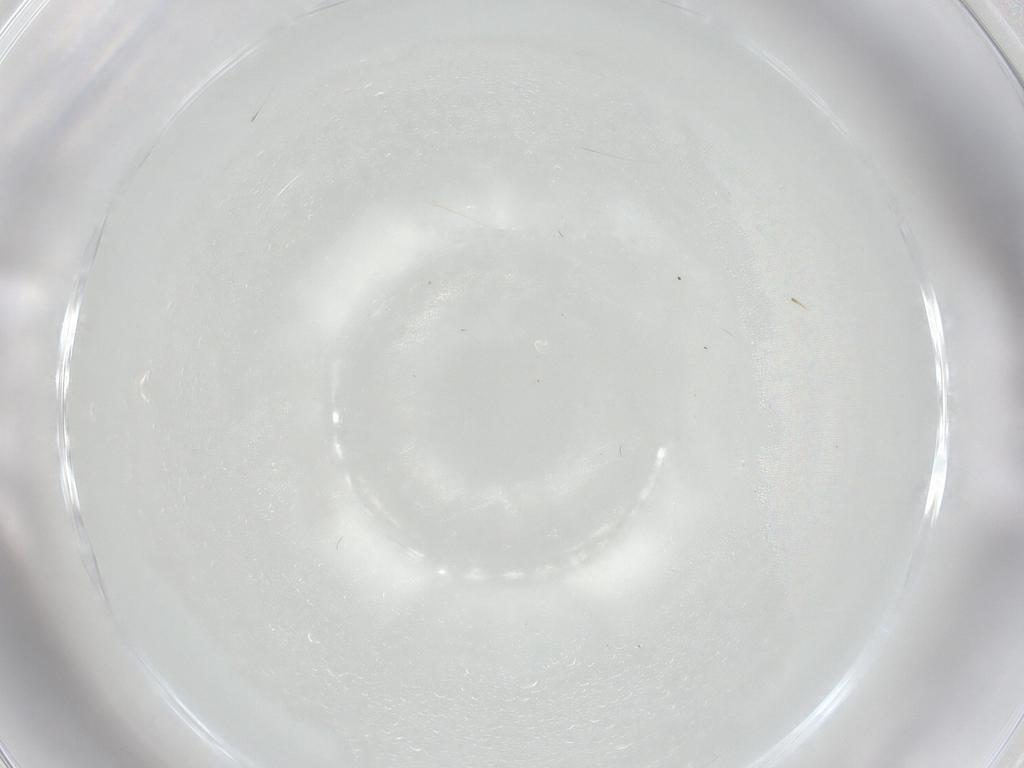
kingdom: Animalia
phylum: Arthropoda
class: Insecta
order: Diptera
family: Ceratopogonidae
